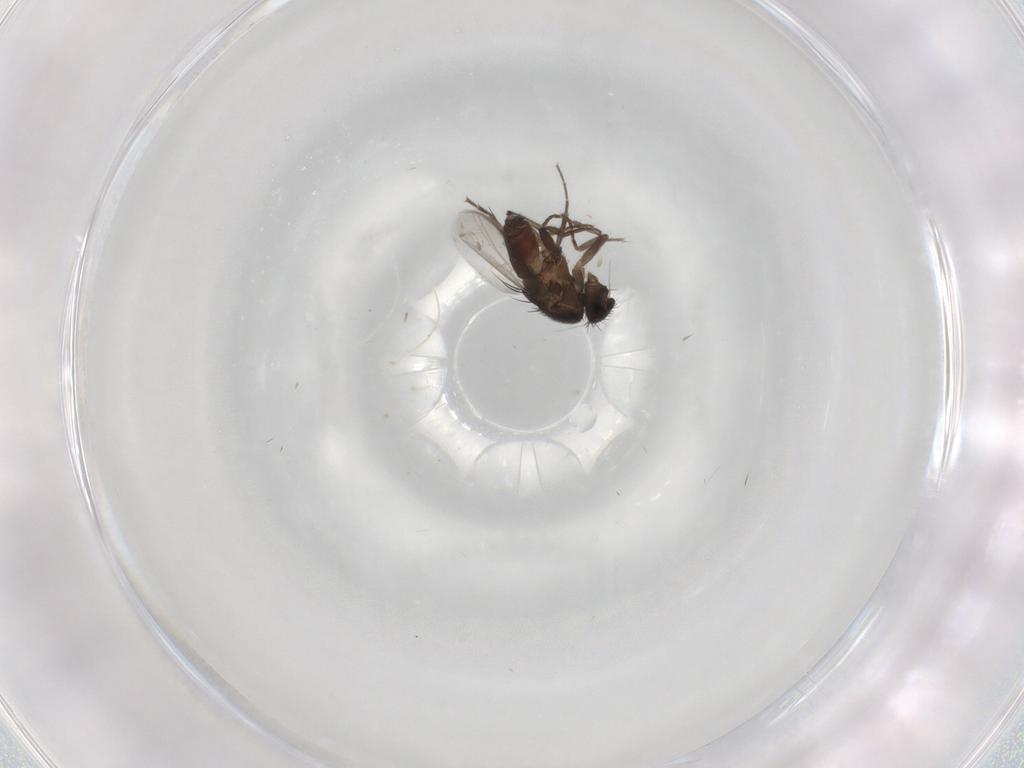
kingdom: Animalia
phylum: Arthropoda
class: Insecta
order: Diptera
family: Sphaeroceridae
